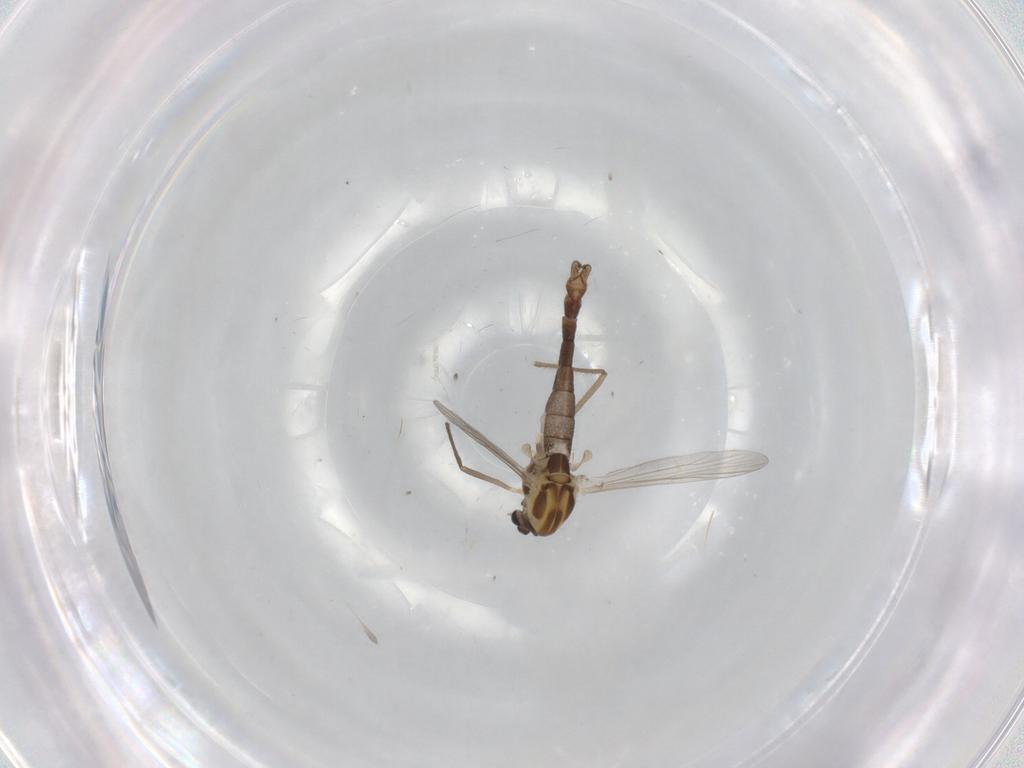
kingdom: Animalia
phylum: Arthropoda
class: Insecta
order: Diptera
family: Chironomidae
